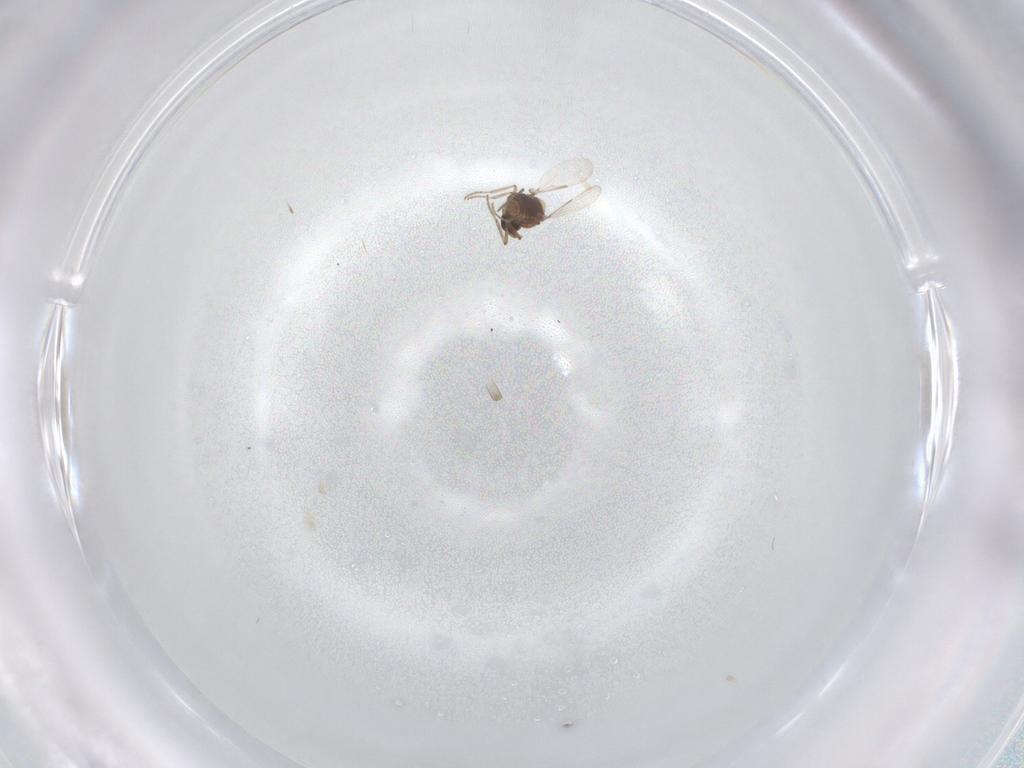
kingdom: Animalia
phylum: Arthropoda
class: Insecta
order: Diptera
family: Ceratopogonidae
